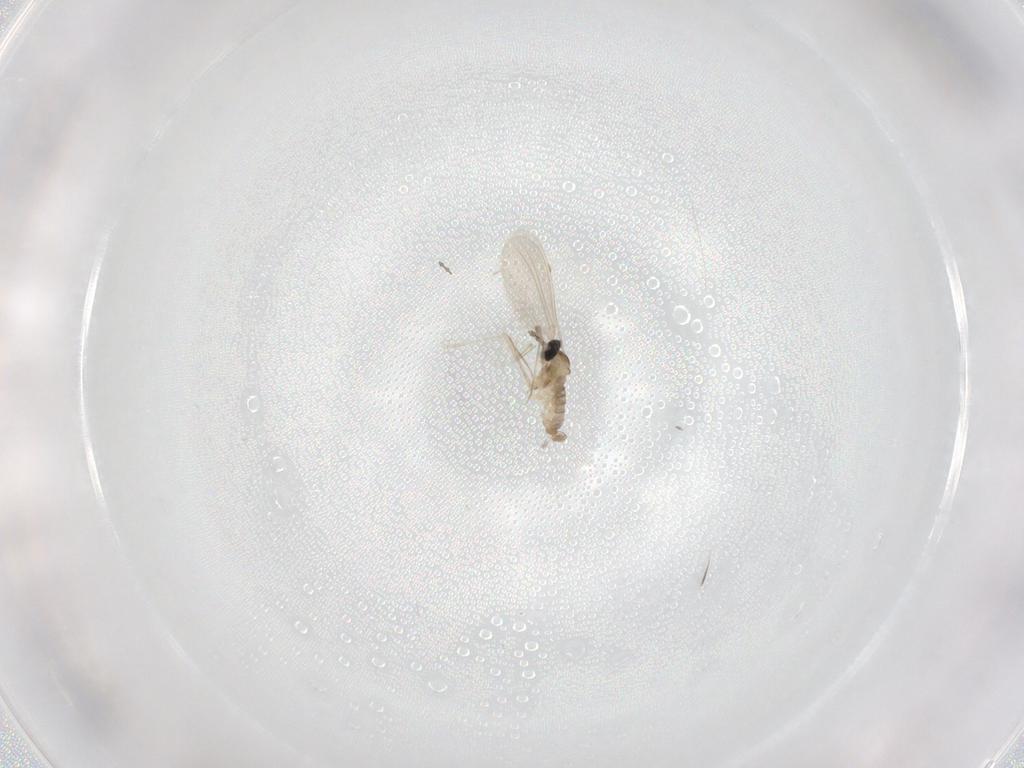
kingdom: Animalia
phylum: Arthropoda
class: Insecta
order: Diptera
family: Cecidomyiidae
